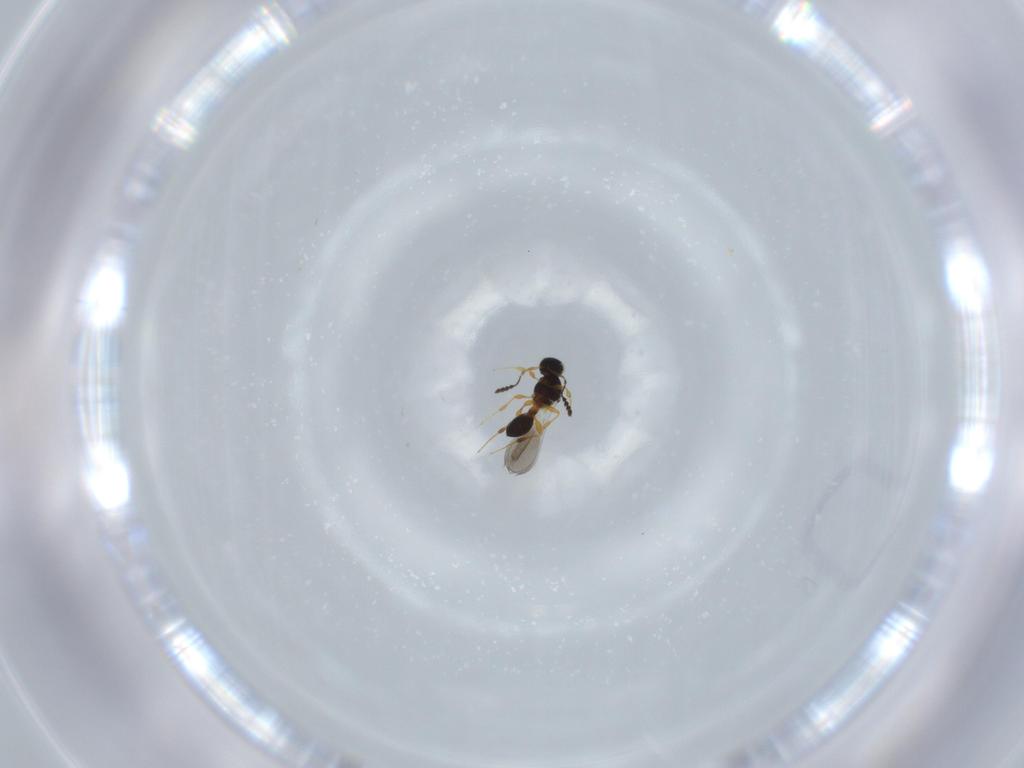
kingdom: Animalia
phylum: Arthropoda
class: Insecta
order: Hymenoptera
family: Platygastridae
